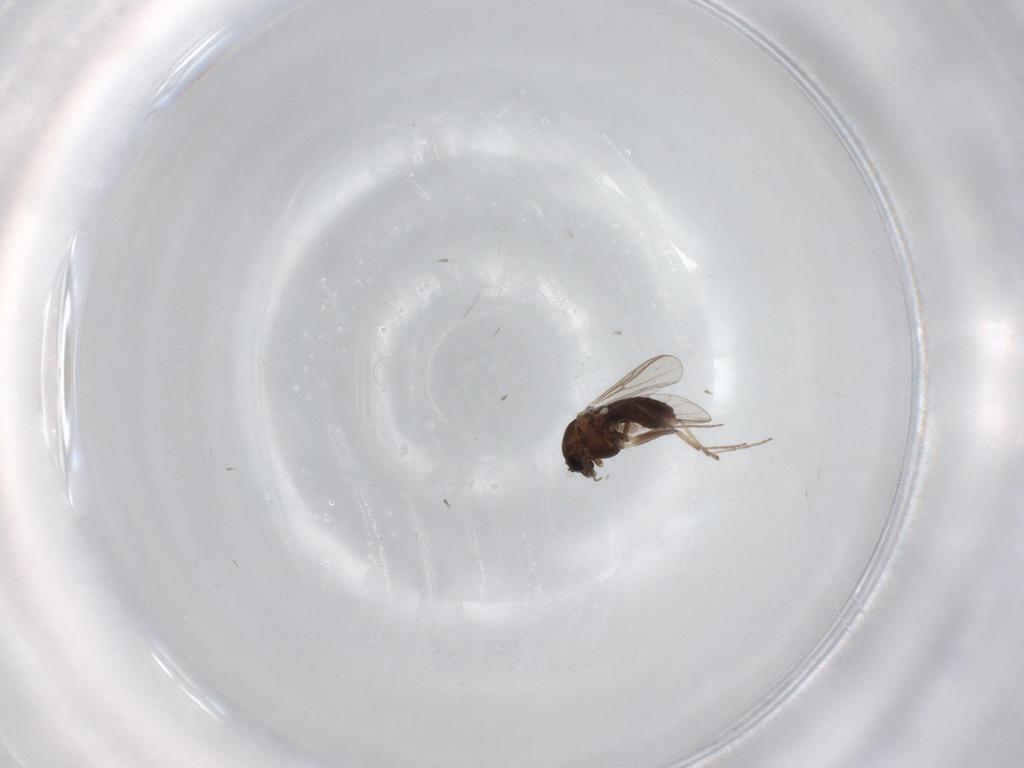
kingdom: Animalia
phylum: Arthropoda
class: Insecta
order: Diptera
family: Chironomidae
